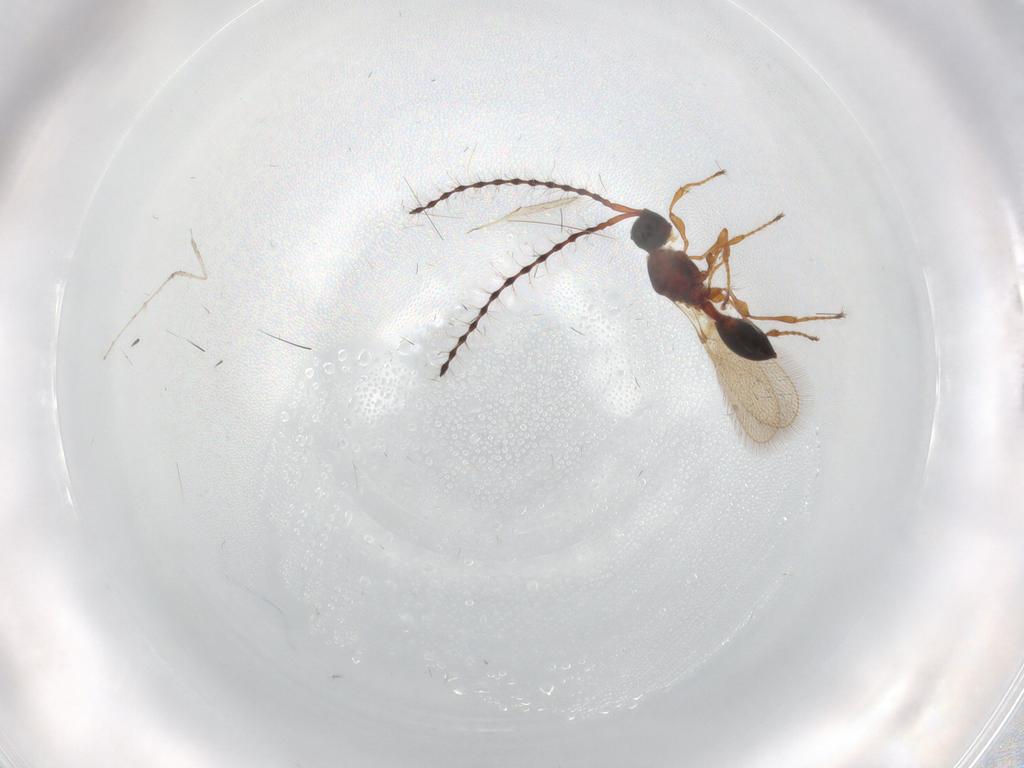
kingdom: Animalia
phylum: Arthropoda
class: Insecta
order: Hymenoptera
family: Diapriidae
